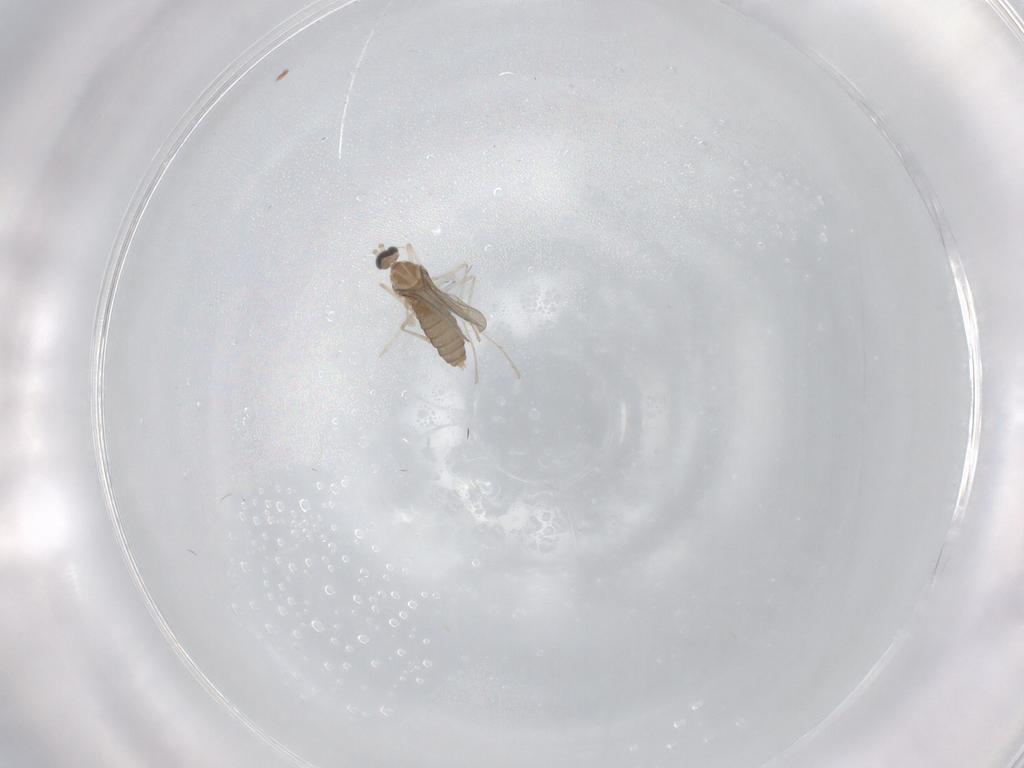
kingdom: Animalia
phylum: Arthropoda
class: Insecta
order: Diptera
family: Cecidomyiidae
